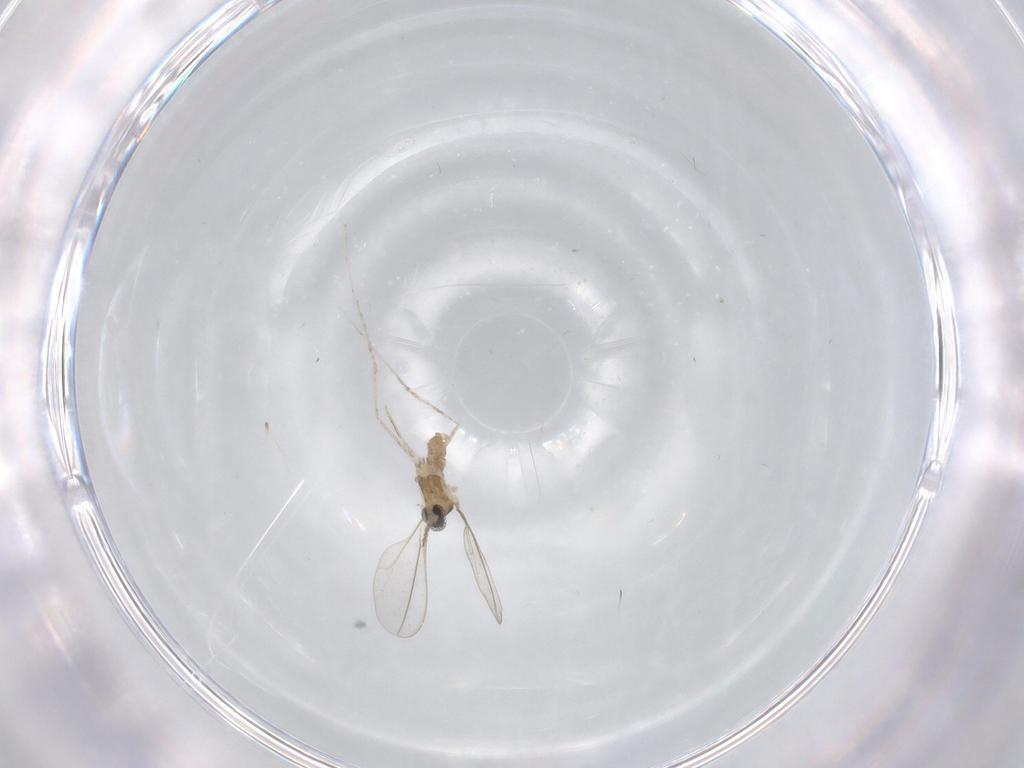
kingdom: Animalia
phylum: Arthropoda
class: Insecta
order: Diptera
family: Cecidomyiidae
